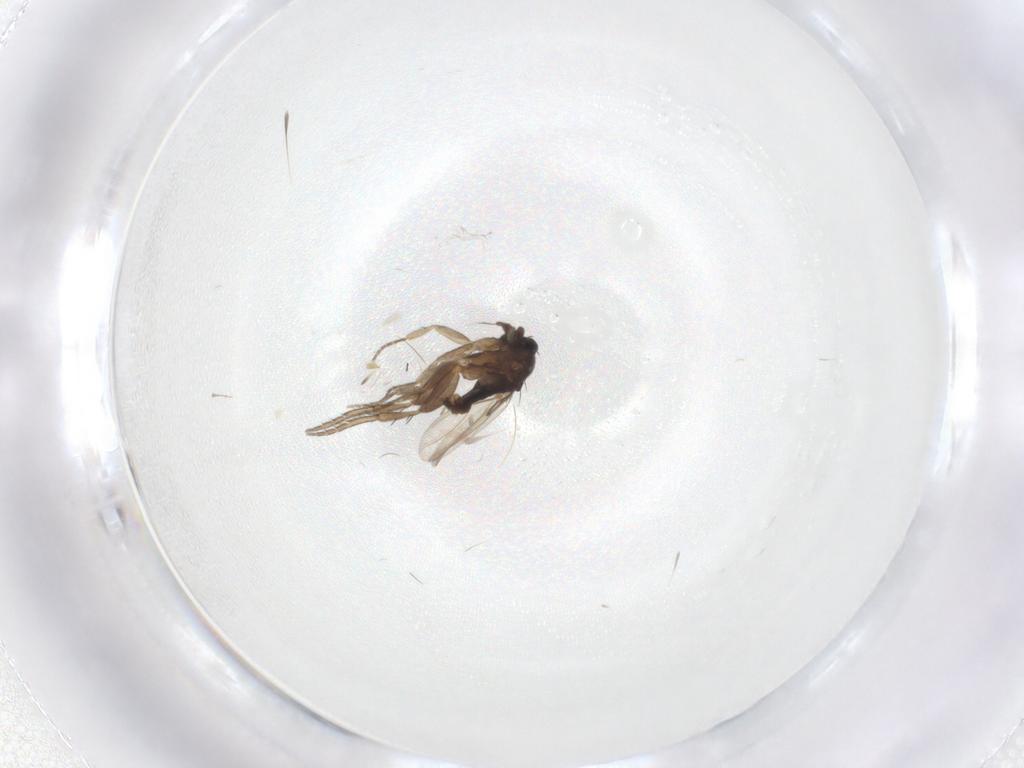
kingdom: Animalia
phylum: Arthropoda
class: Insecta
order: Diptera
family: Phoridae
